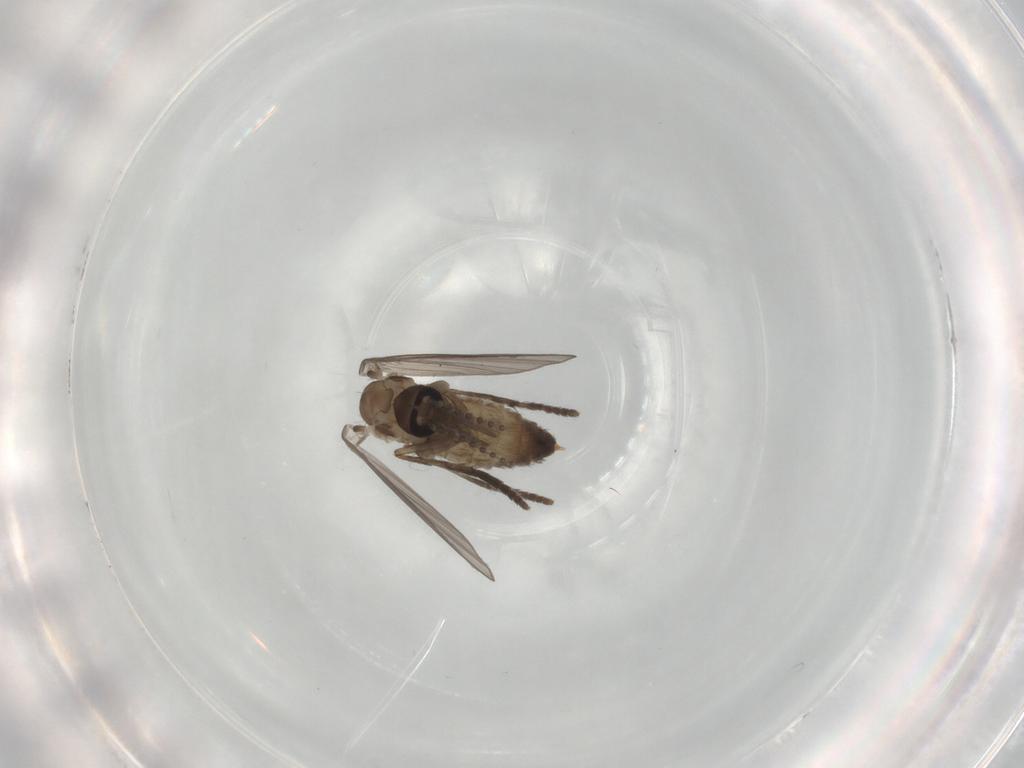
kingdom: Animalia
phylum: Arthropoda
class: Insecta
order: Diptera
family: Psychodidae
